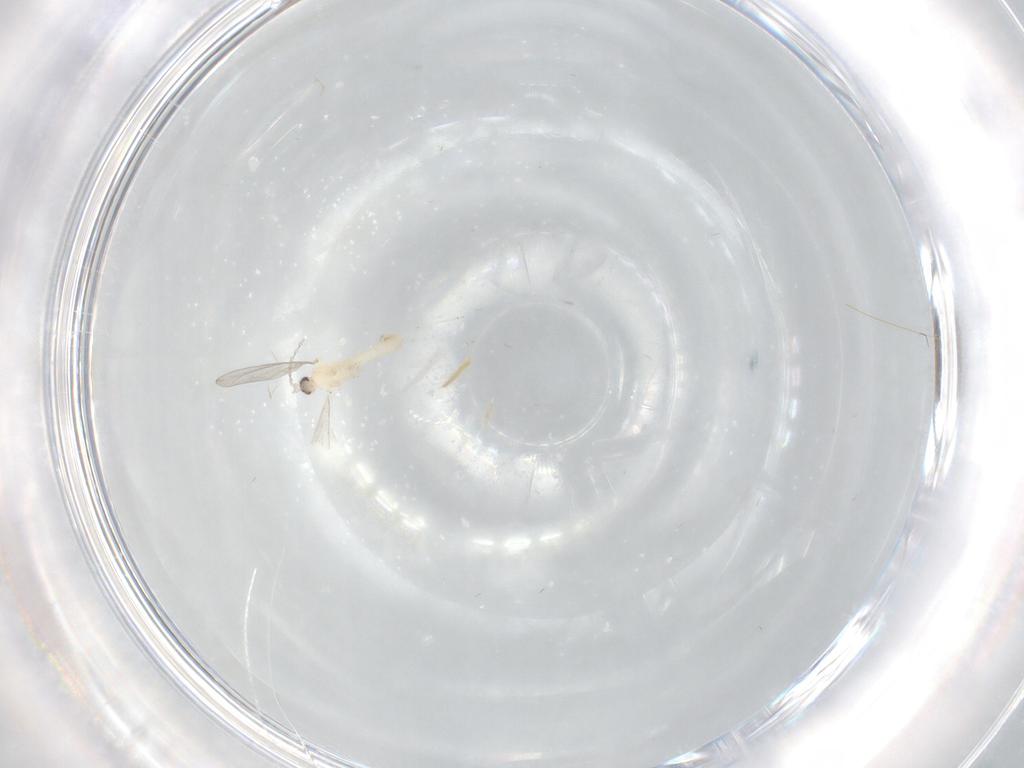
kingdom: Animalia
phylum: Arthropoda
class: Insecta
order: Diptera
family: Cecidomyiidae
